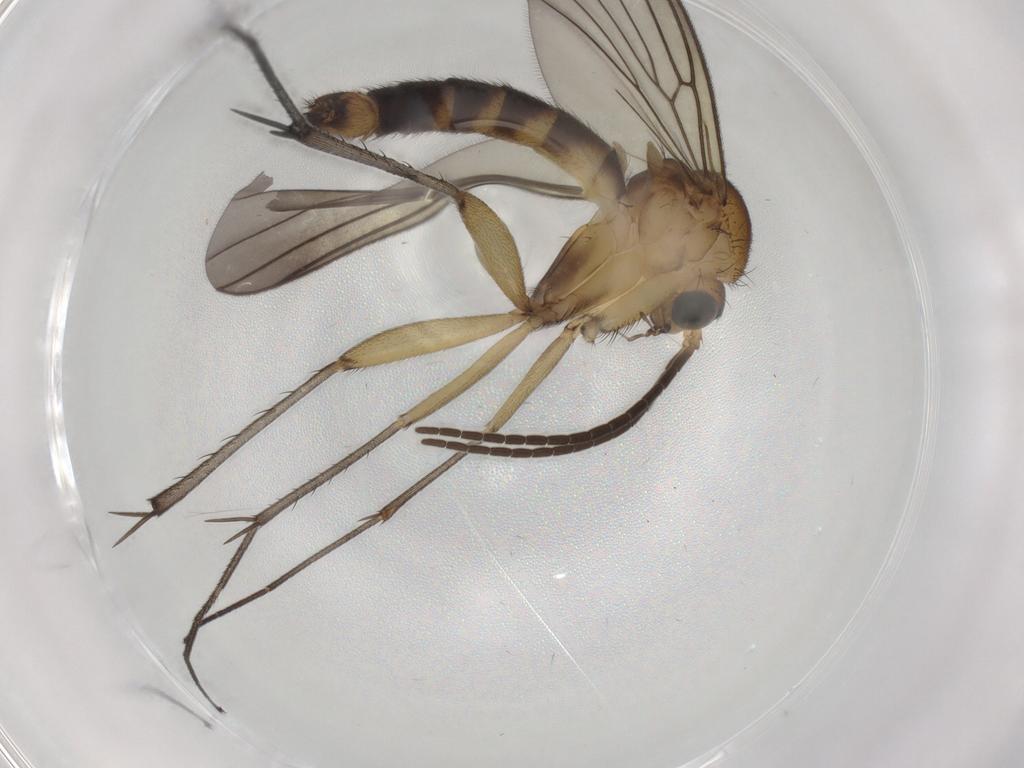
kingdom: Animalia
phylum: Arthropoda
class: Insecta
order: Diptera
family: Mycetophilidae
